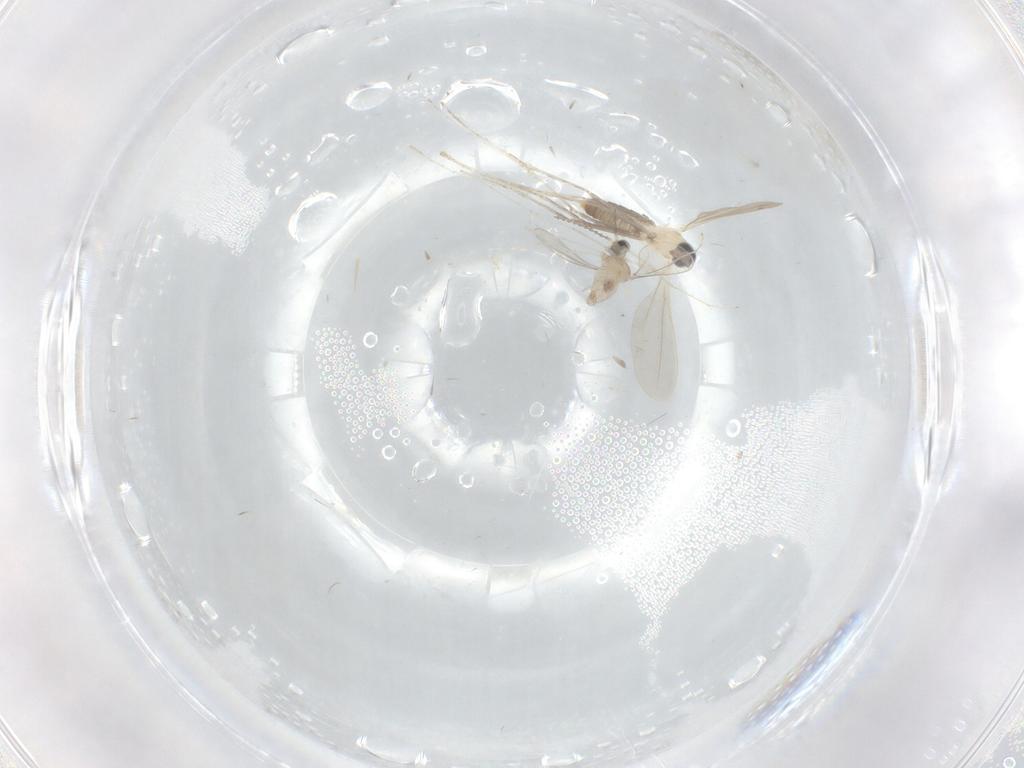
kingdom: Animalia
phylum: Arthropoda
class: Insecta
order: Diptera
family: Cecidomyiidae
